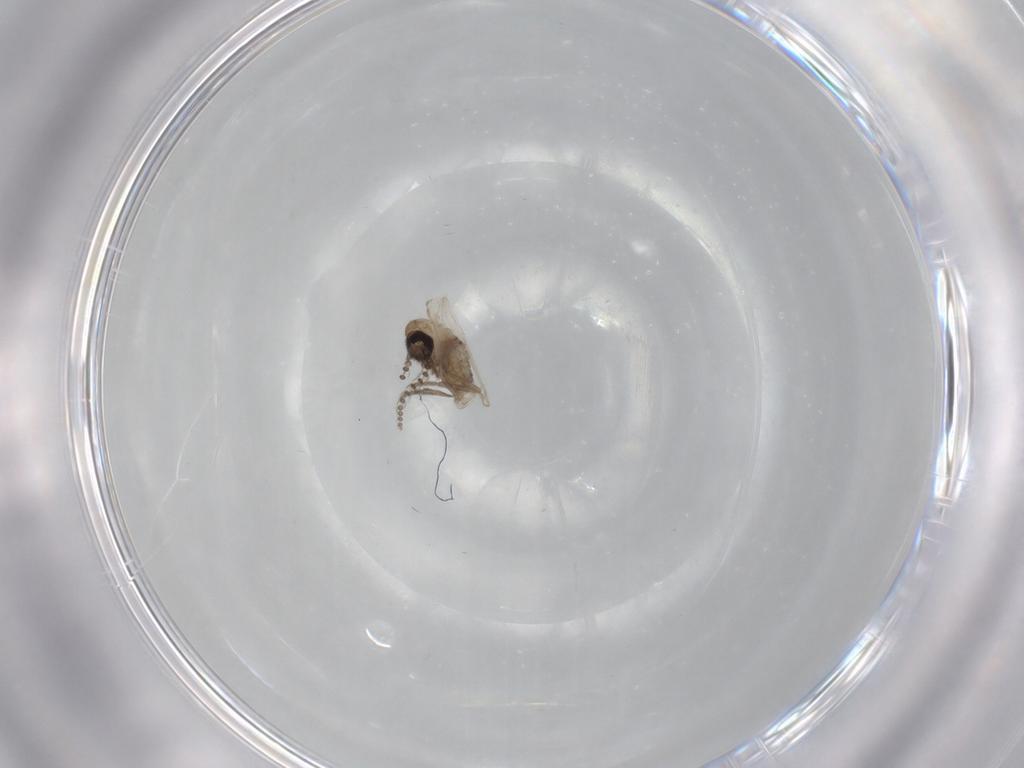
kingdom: Animalia
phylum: Arthropoda
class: Insecta
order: Diptera
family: Psychodidae
